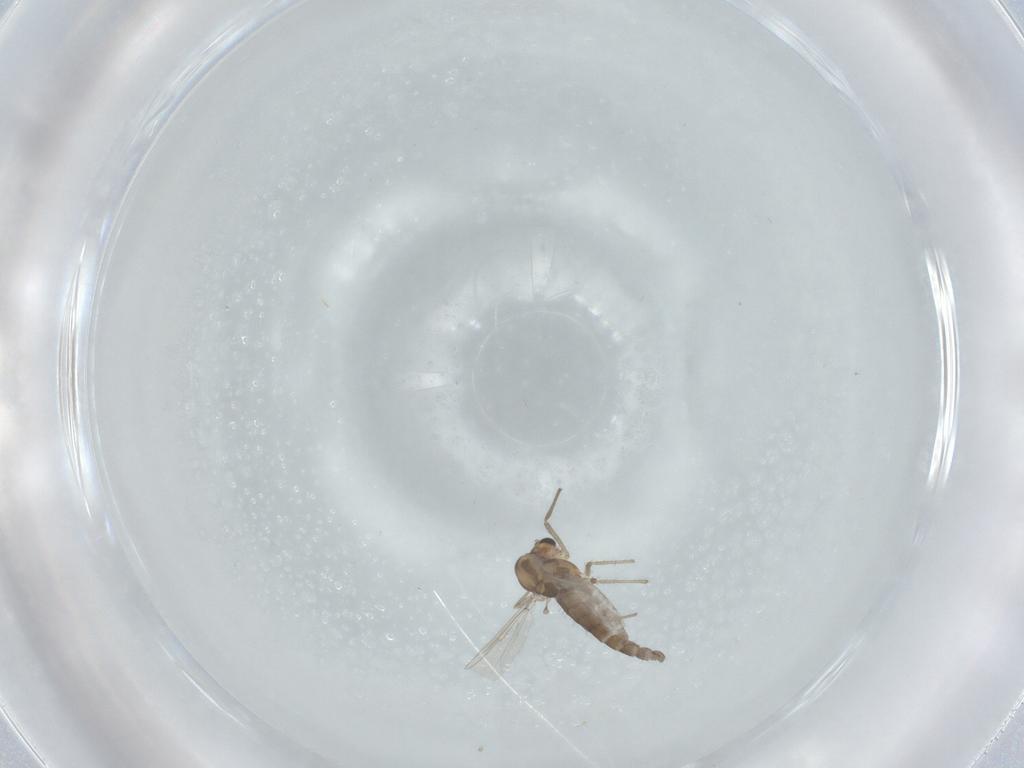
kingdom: Animalia
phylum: Arthropoda
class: Insecta
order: Diptera
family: Chironomidae
